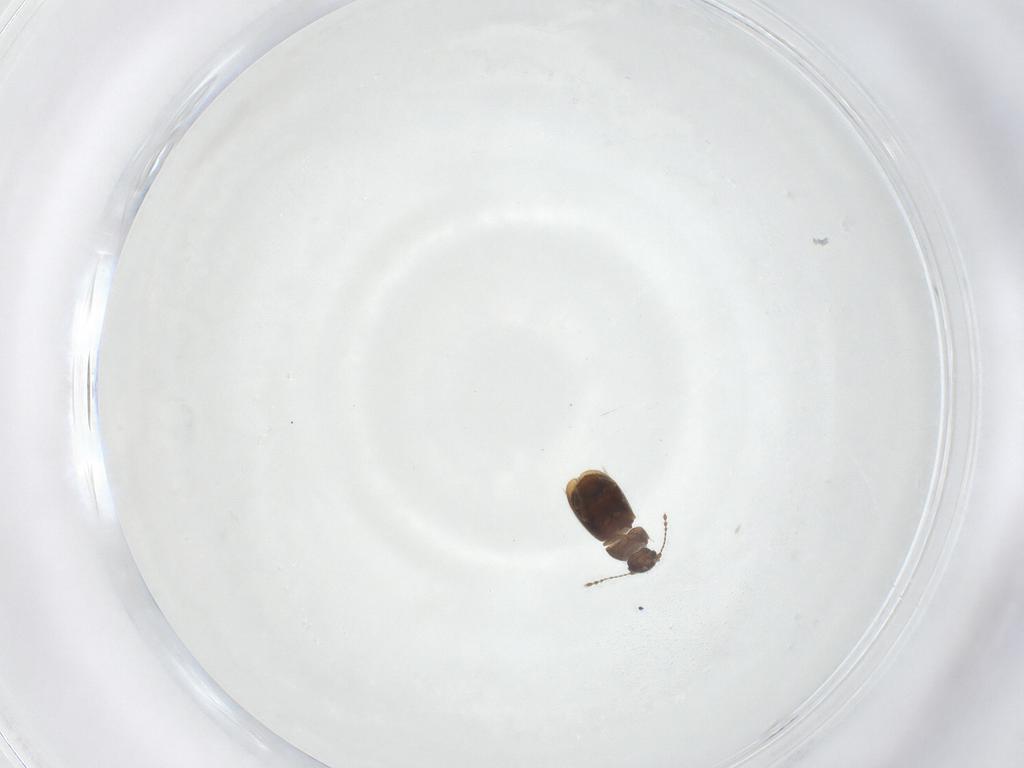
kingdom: Animalia
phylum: Arthropoda
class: Insecta
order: Coleoptera
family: Ptiliidae
